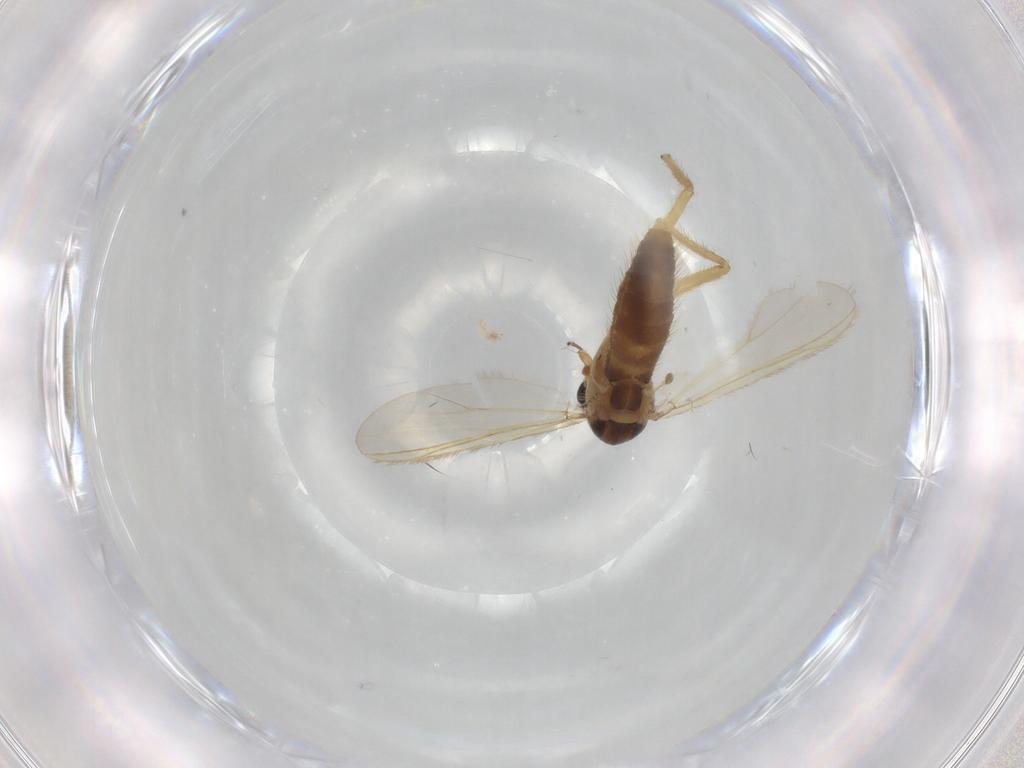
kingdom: Animalia
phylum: Arthropoda
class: Insecta
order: Diptera
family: Chironomidae
